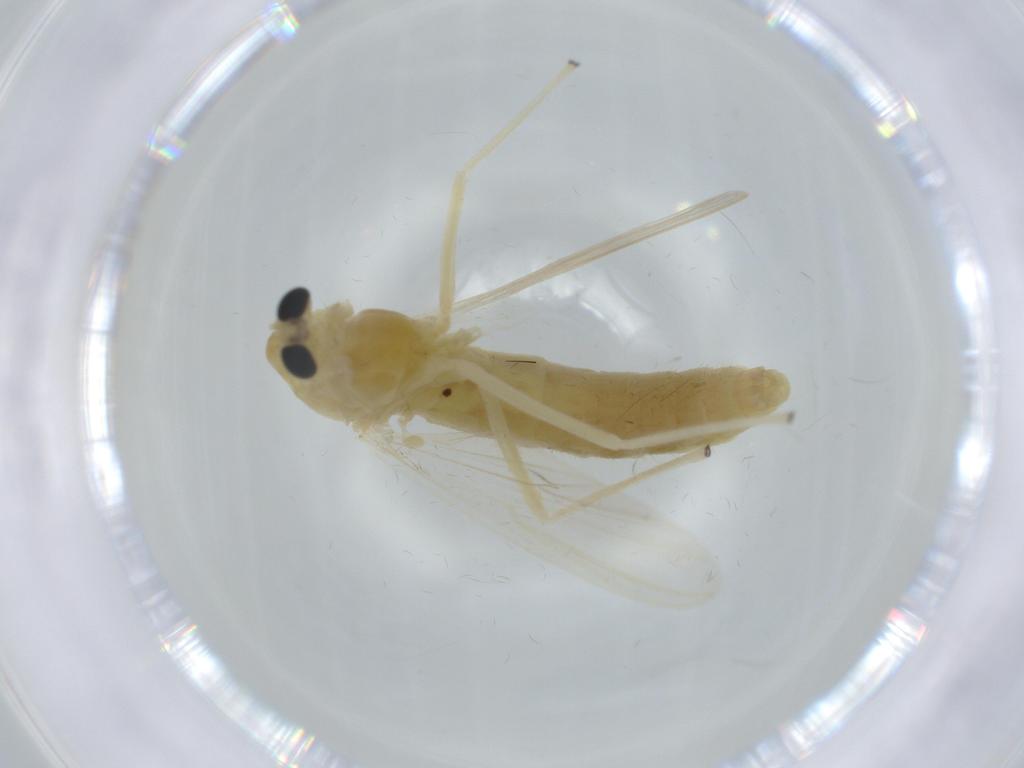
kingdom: Animalia
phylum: Arthropoda
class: Insecta
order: Diptera
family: Chironomidae
